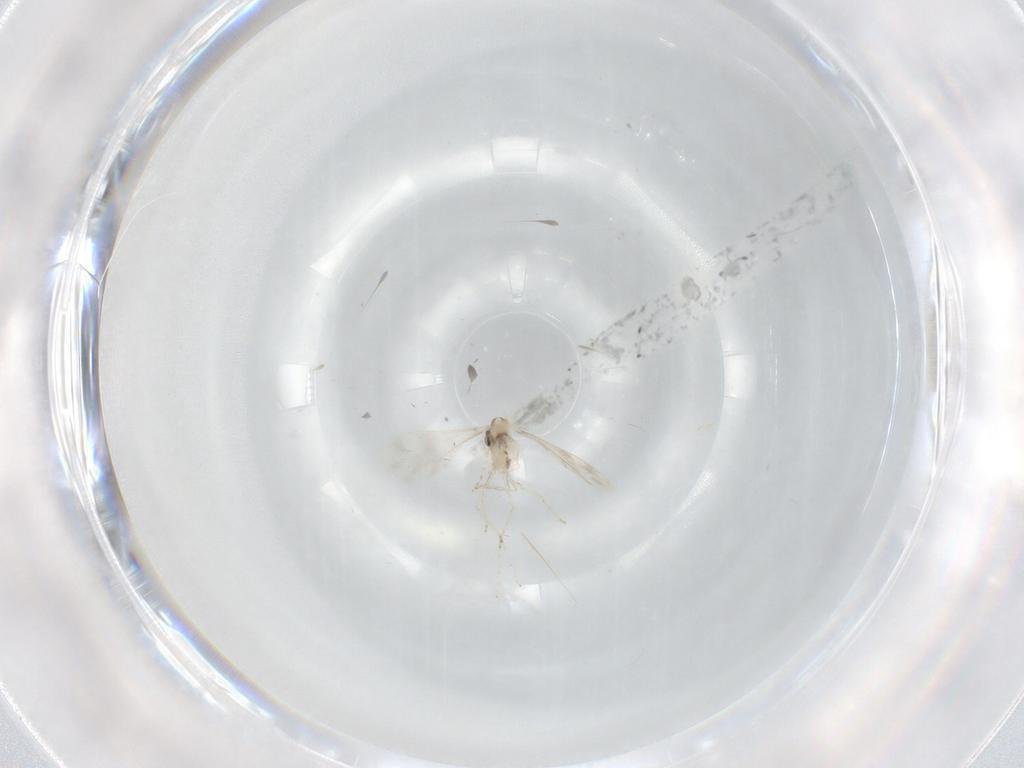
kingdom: Animalia
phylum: Arthropoda
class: Insecta
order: Diptera
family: Cecidomyiidae
